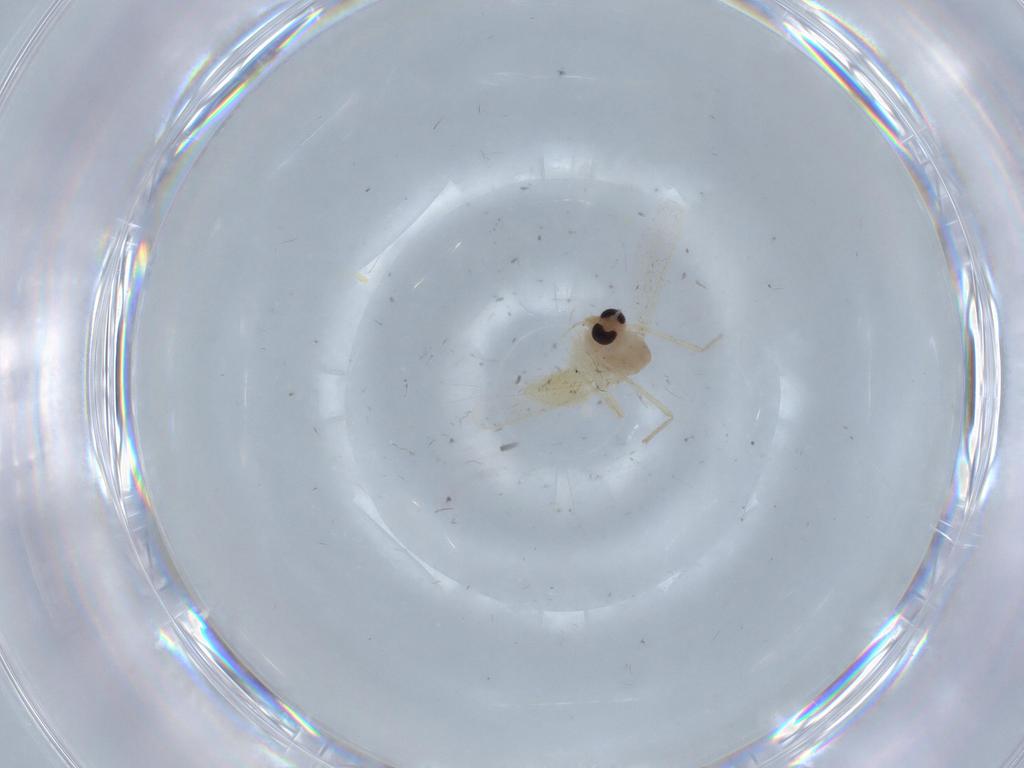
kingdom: Animalia
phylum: Arthropoda
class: Insecta
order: Diptera
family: Chironomidae
